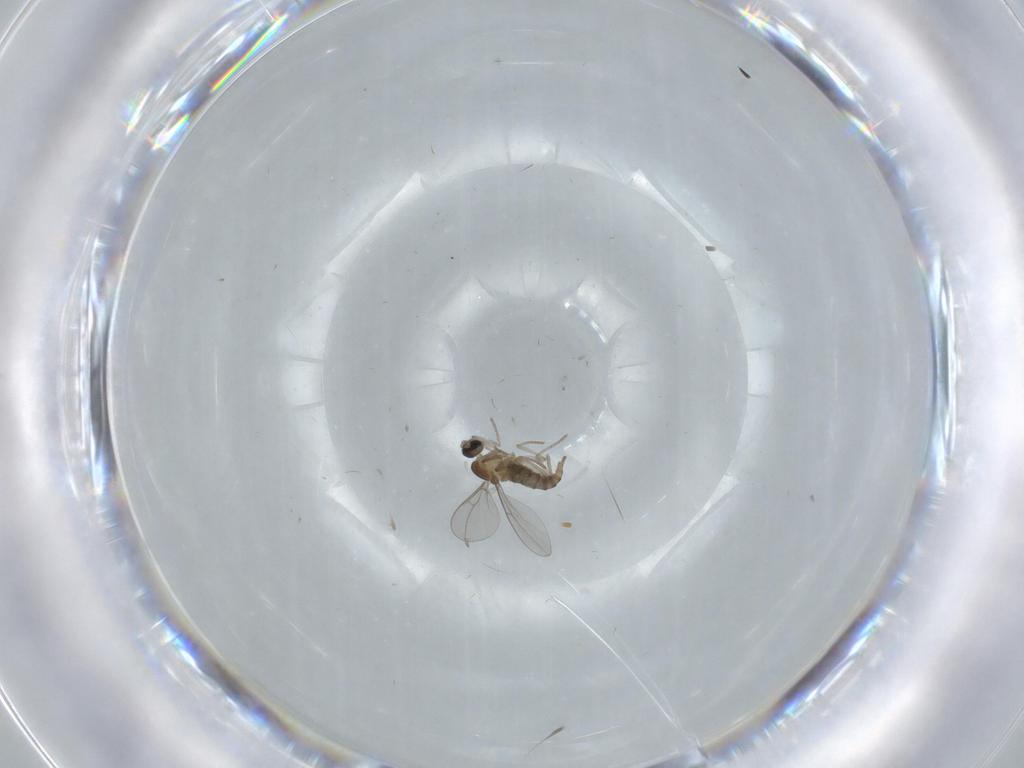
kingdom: Animalia
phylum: Arthropoda
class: Insecta
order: Diptera
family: Cecidomyiidae
